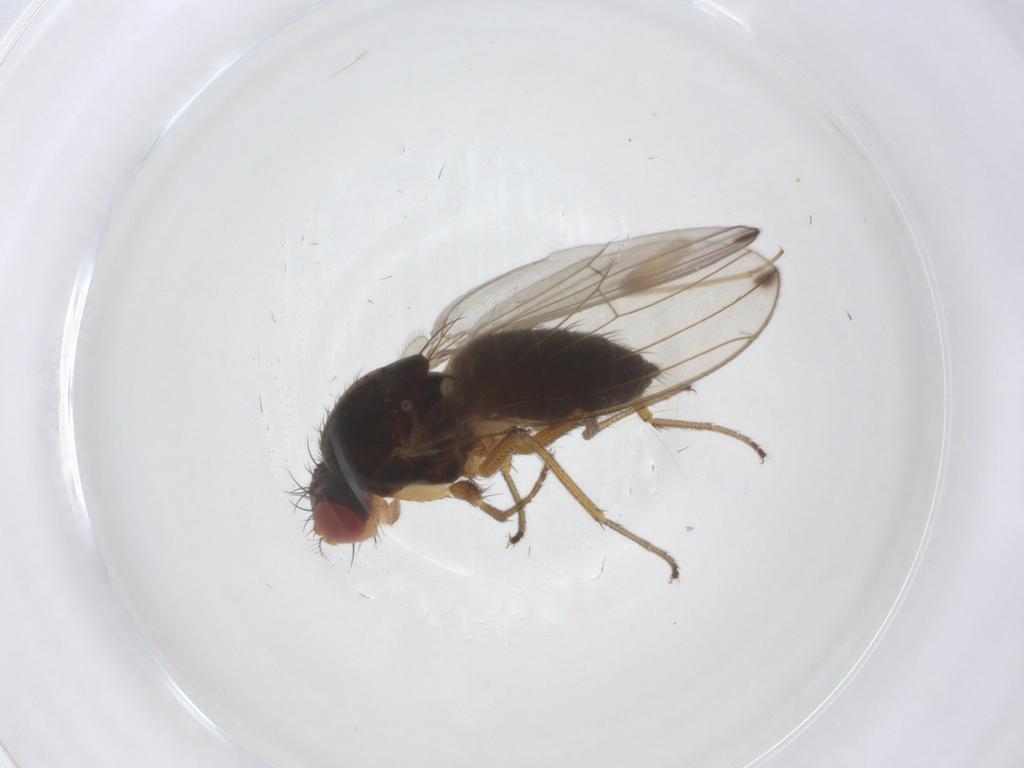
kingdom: Animalia
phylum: Arthropoda
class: Insecta
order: Diptera
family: Drosophilidae
